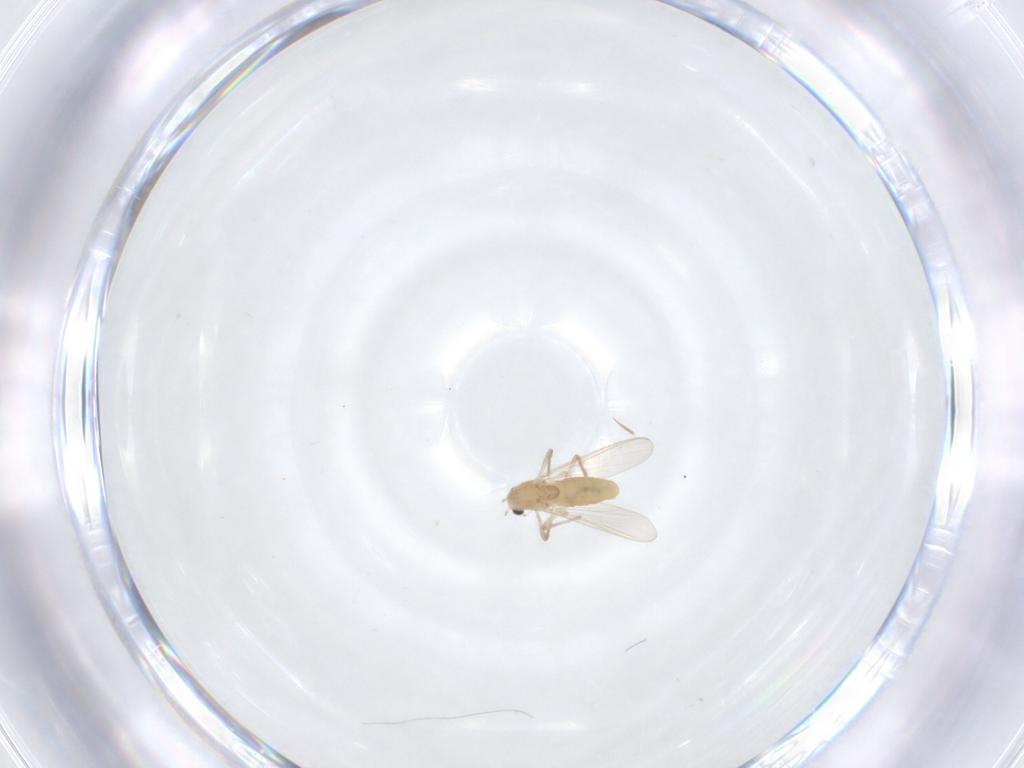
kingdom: Animalia
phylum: Arthropoda
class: Insecta
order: Diptera
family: Chironomidae
